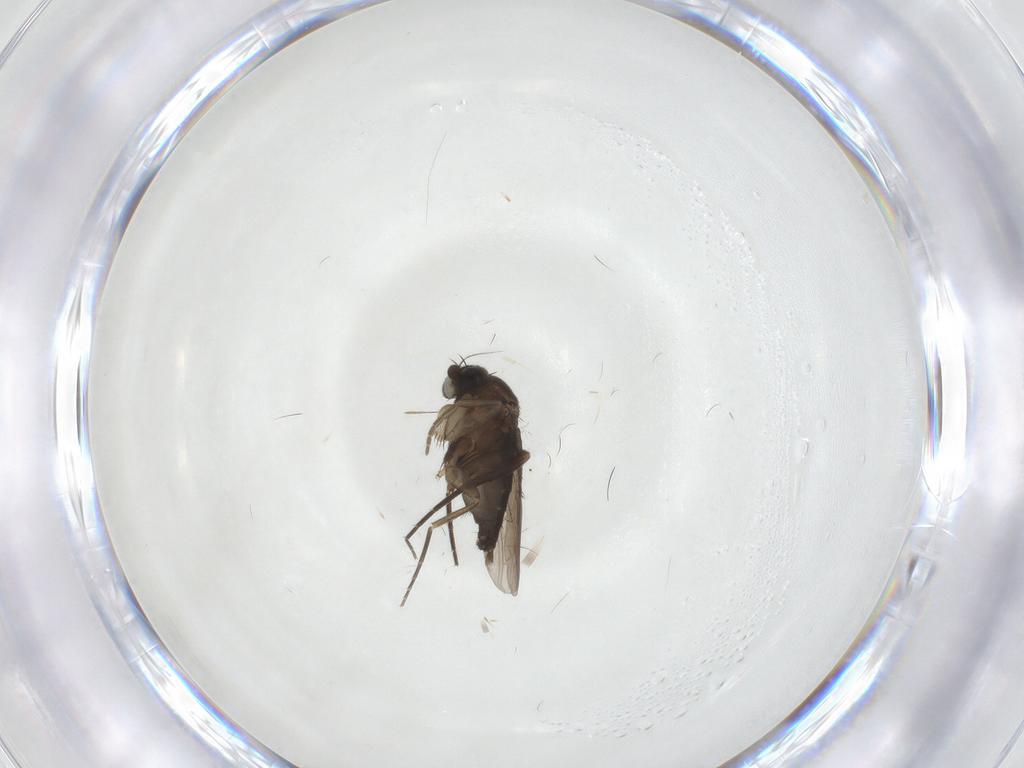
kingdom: Animalia
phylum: Arthropoda
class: Insecta
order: Diptera
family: Phoridae
